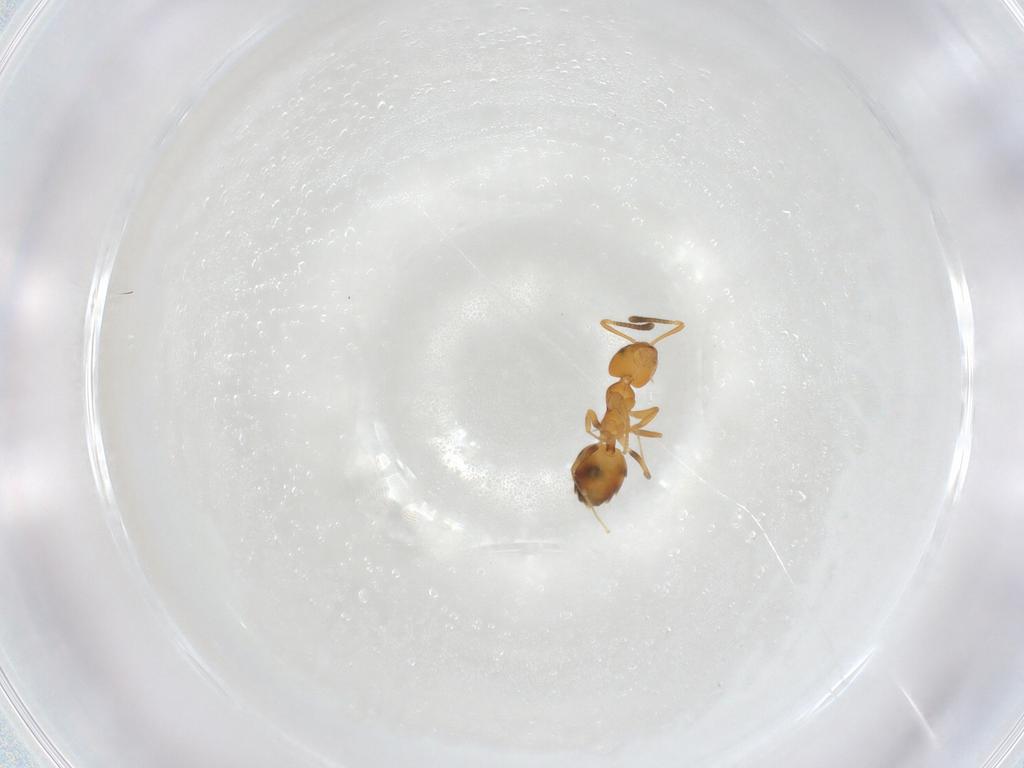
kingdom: Animalia
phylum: Arthropoda
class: Insecta
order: Hymenoptera
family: Formicidae
